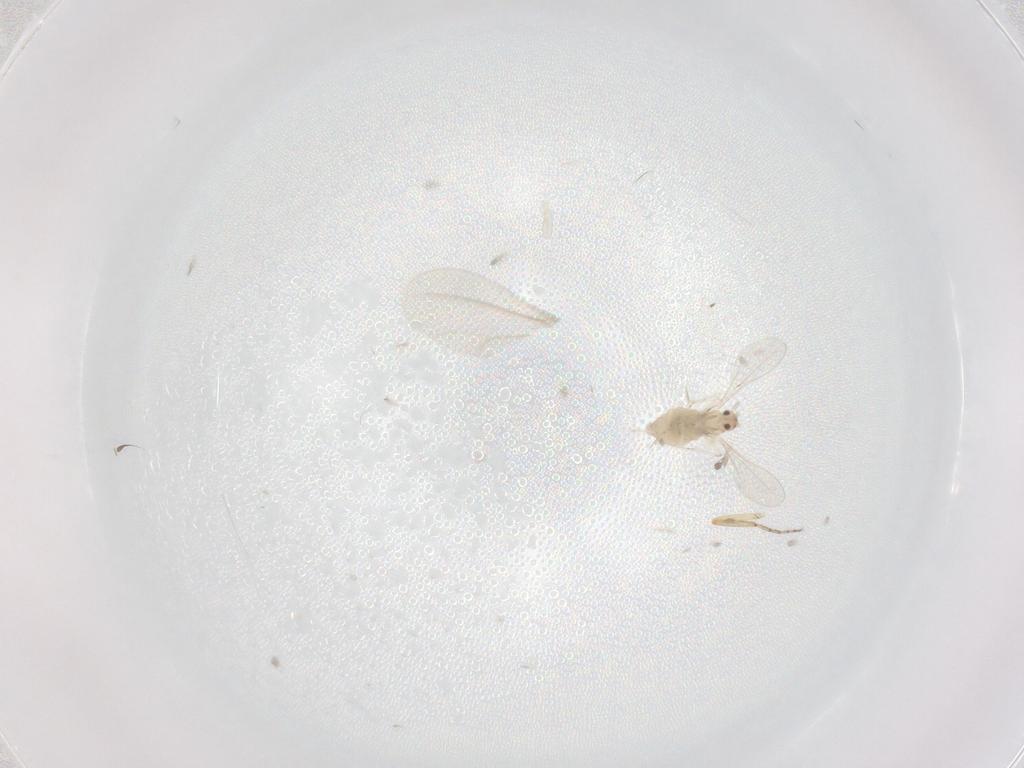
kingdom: Animalia
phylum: Arthropoda
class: Insecta
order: Diptera
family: Cecidomyiidae
